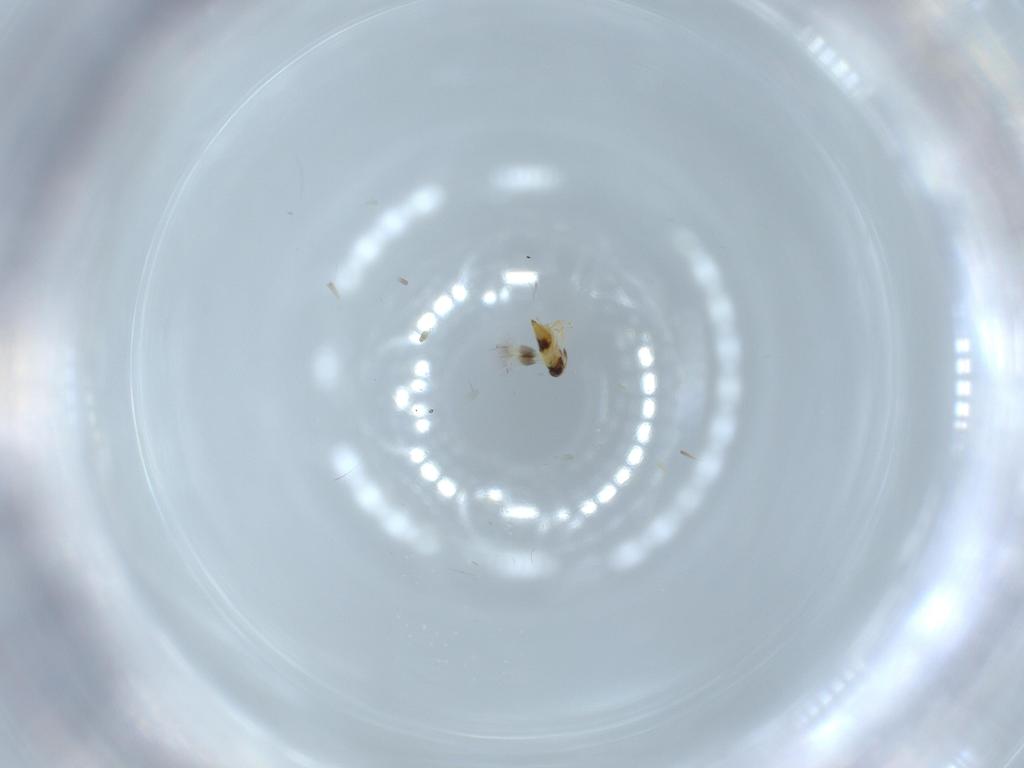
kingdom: Animalia
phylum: Arthropoda
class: Insecta
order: Hymenoptera
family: Signiphoridae
